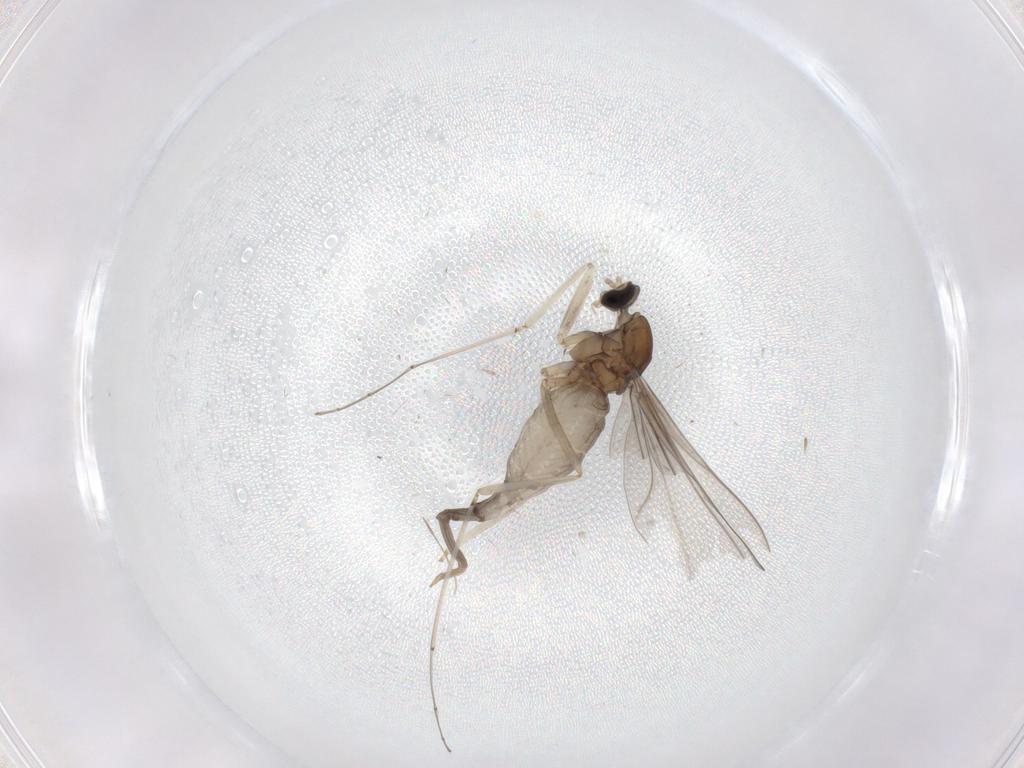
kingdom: Animalia
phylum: Arthropoda
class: Insecta
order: Diptera
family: Cecidomyiidae
